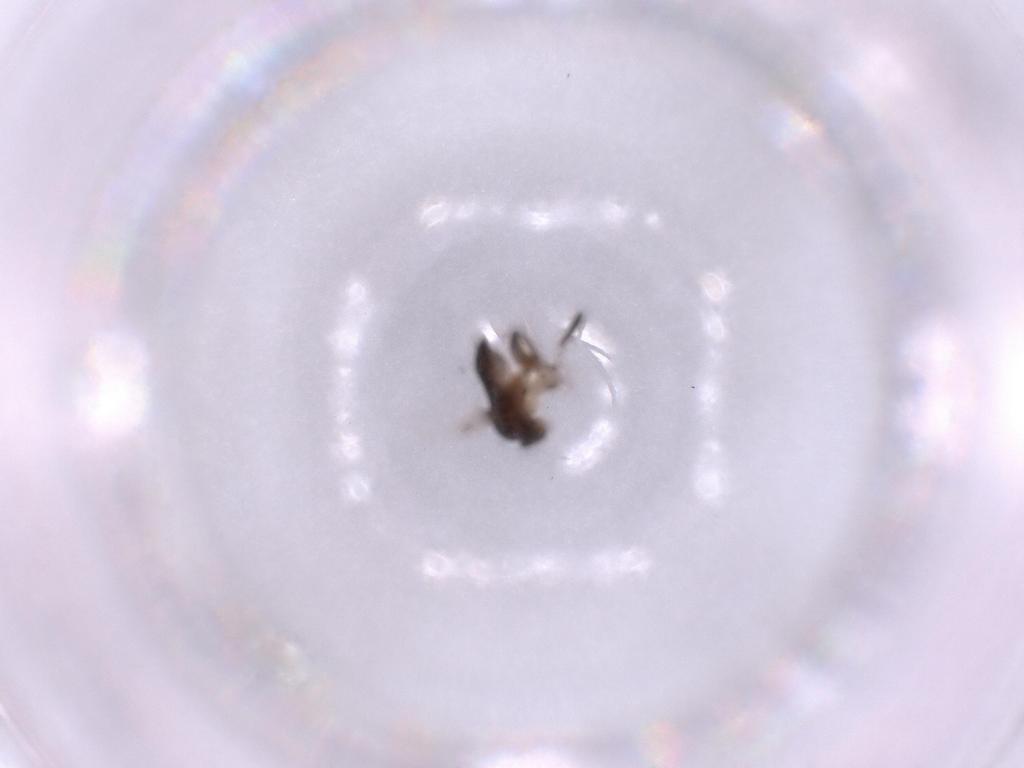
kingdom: Animalia
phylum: Arthropoda
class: Insecta
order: Diptera
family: Phoridae
